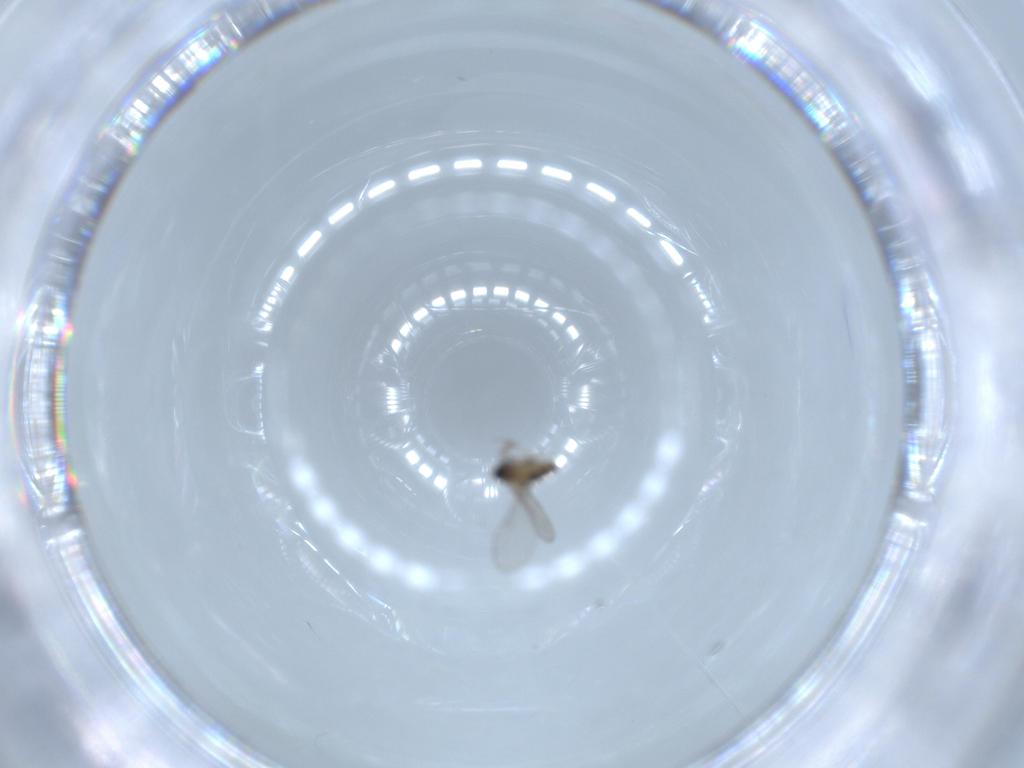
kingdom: Animalia
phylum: Arthropoda
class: Insecta
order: Diptera
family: Cecidomyiidae
